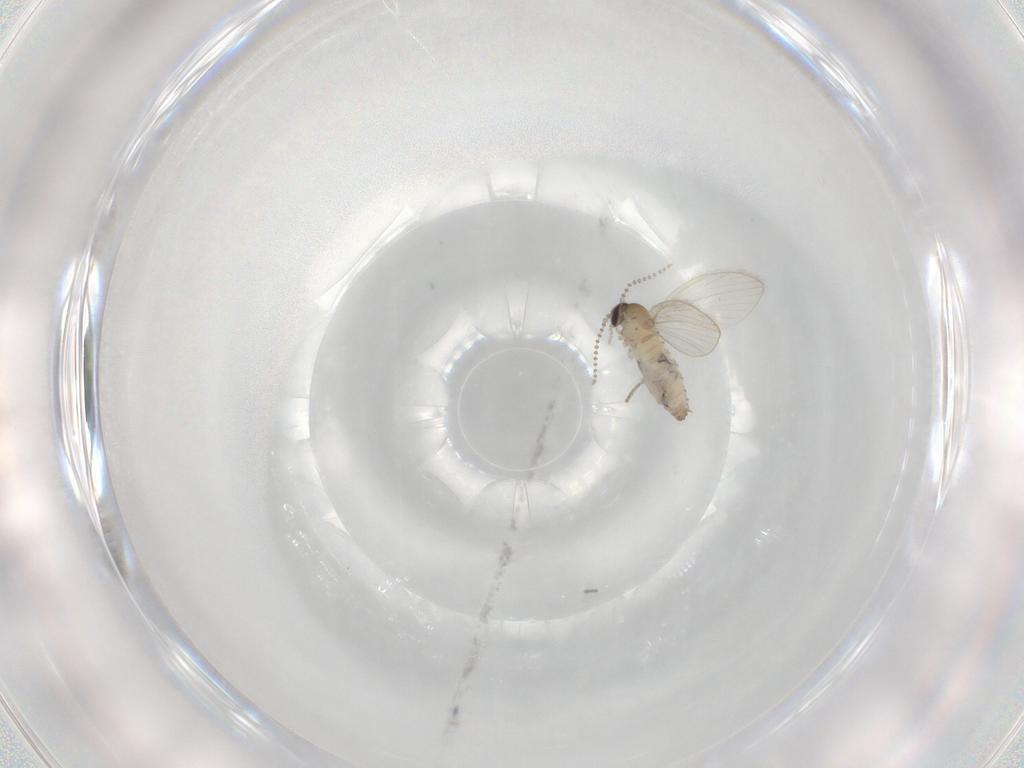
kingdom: Animalia
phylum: Arthropoda
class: Insecta
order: Diptera
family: Psychodidae
